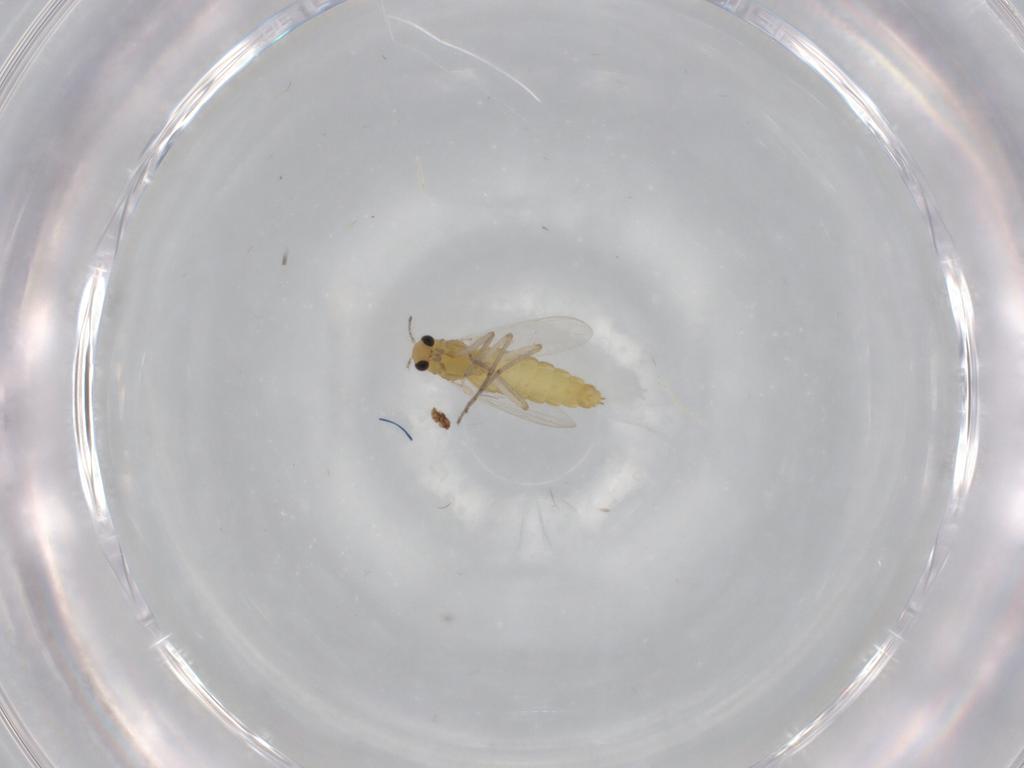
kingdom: Animalia
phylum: Arthropoda
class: Insecta
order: Diptera
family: Chironomidae
